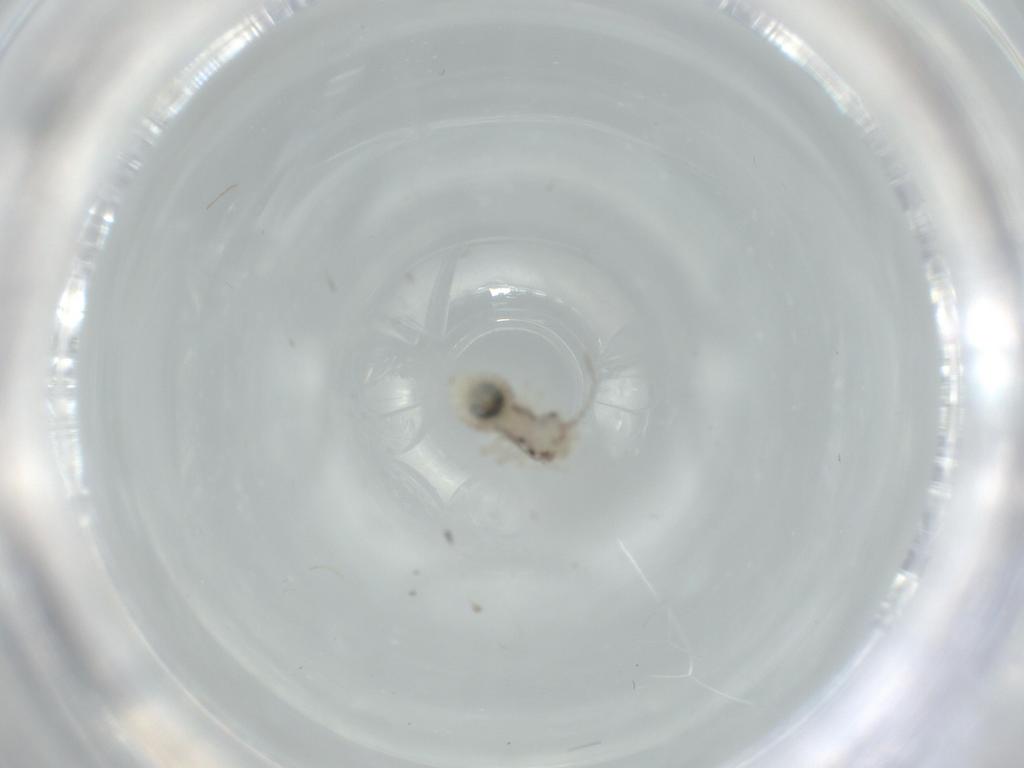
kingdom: Animalia
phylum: Arthropoda
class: Insecta
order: Psocodea
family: Pseudocaeciliidae
